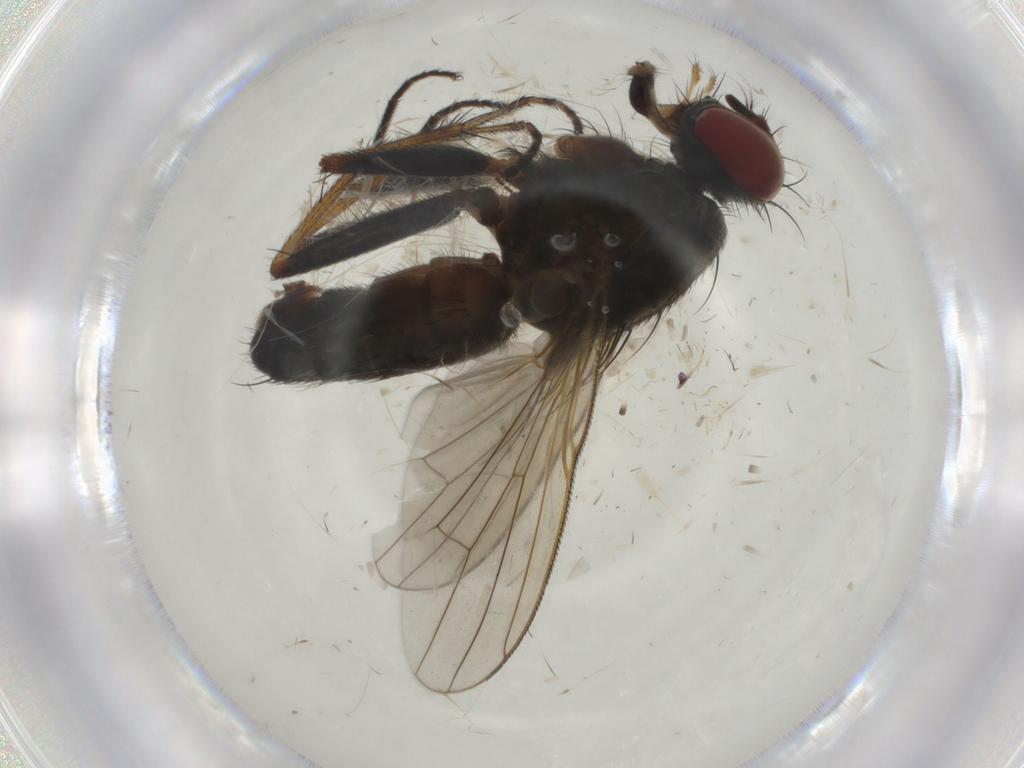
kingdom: Animalia
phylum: Arthropoda
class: Insecta
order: Diptera
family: Muscidae
